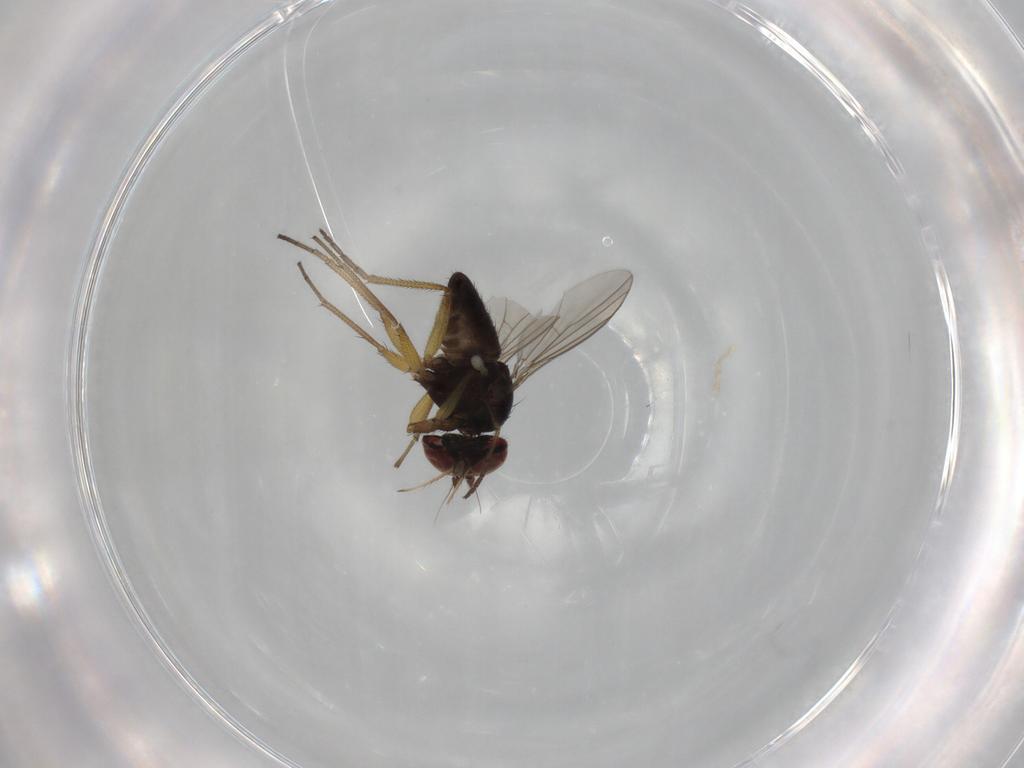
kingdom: Animalia
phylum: Arthropoda
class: Insecta
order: Diptera
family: Dolichopodidae
